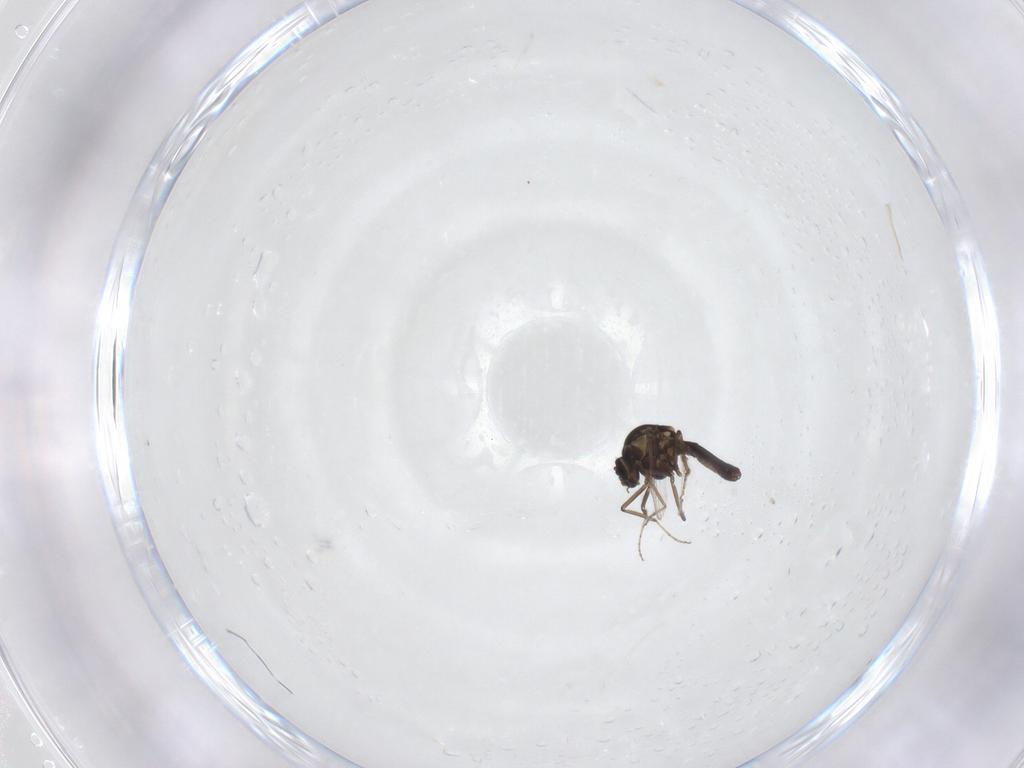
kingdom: Animalia
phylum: Arthropoda
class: Insecta
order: Diptera
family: Ceratopogonidae
